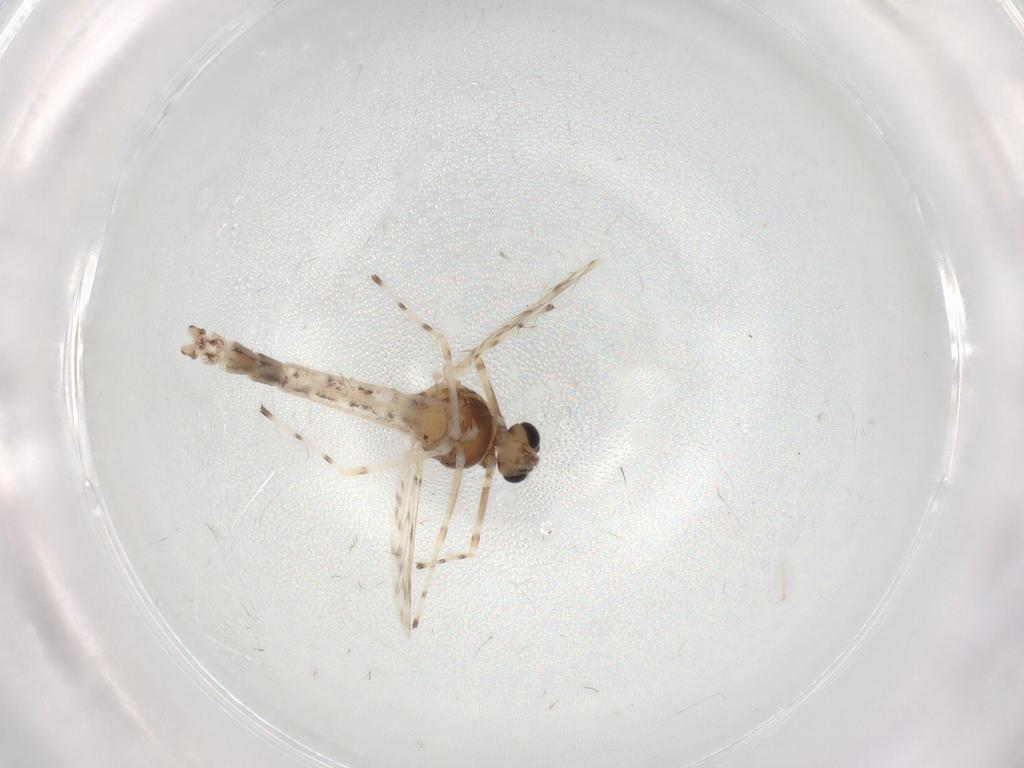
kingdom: Animalia
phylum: Arthropoda
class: Insecta
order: Diptera
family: Chironomidae
